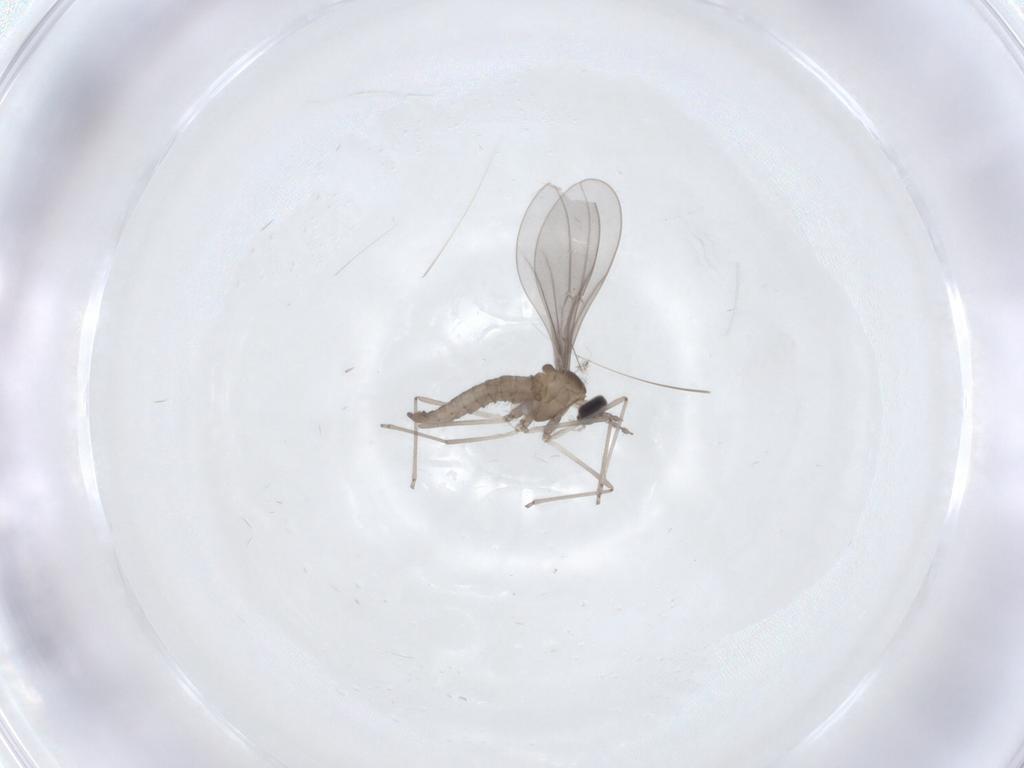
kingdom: Animalia
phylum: Arthropoda
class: Insecta
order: Diptera
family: Cecidomyiidae
